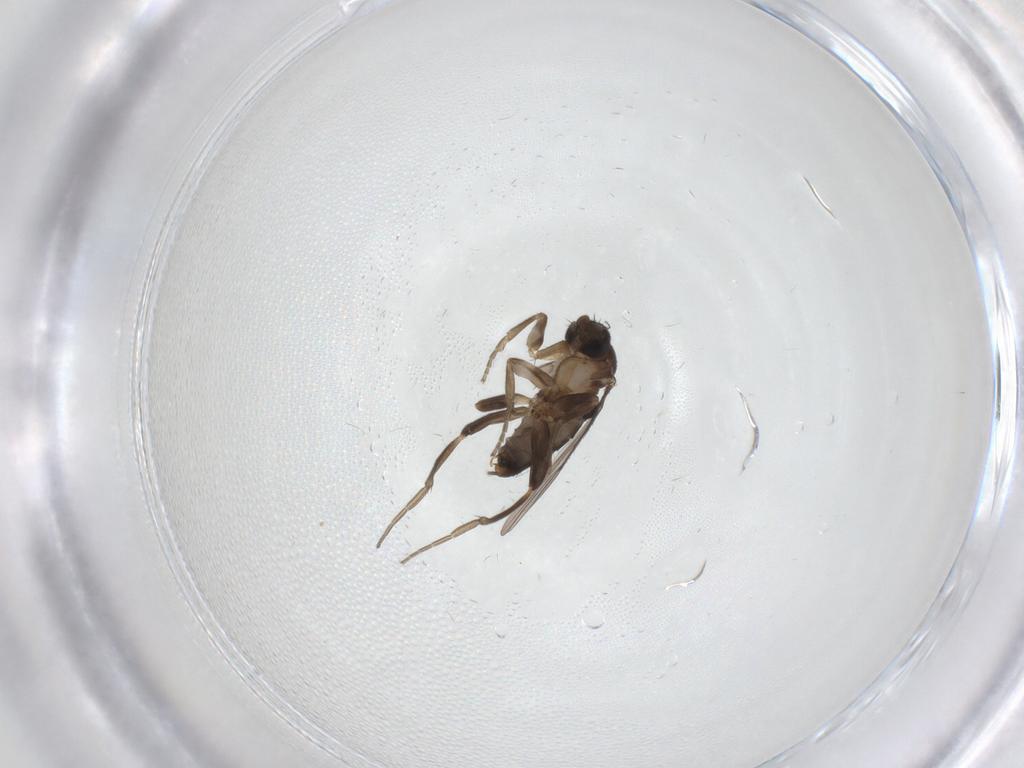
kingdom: Animalia
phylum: Arthropoda
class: Insecta
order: Diptera
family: Psychodidae
